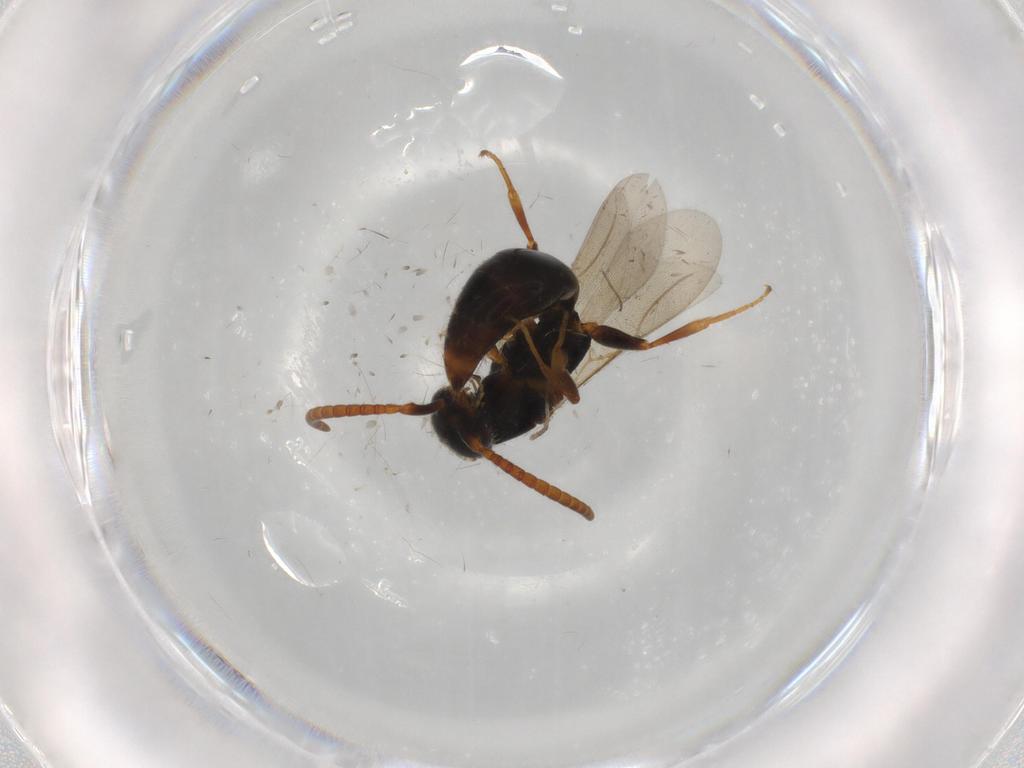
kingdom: Animalia
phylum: Arthropoda
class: Insecta
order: Hymenoptera
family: Bethylidae
